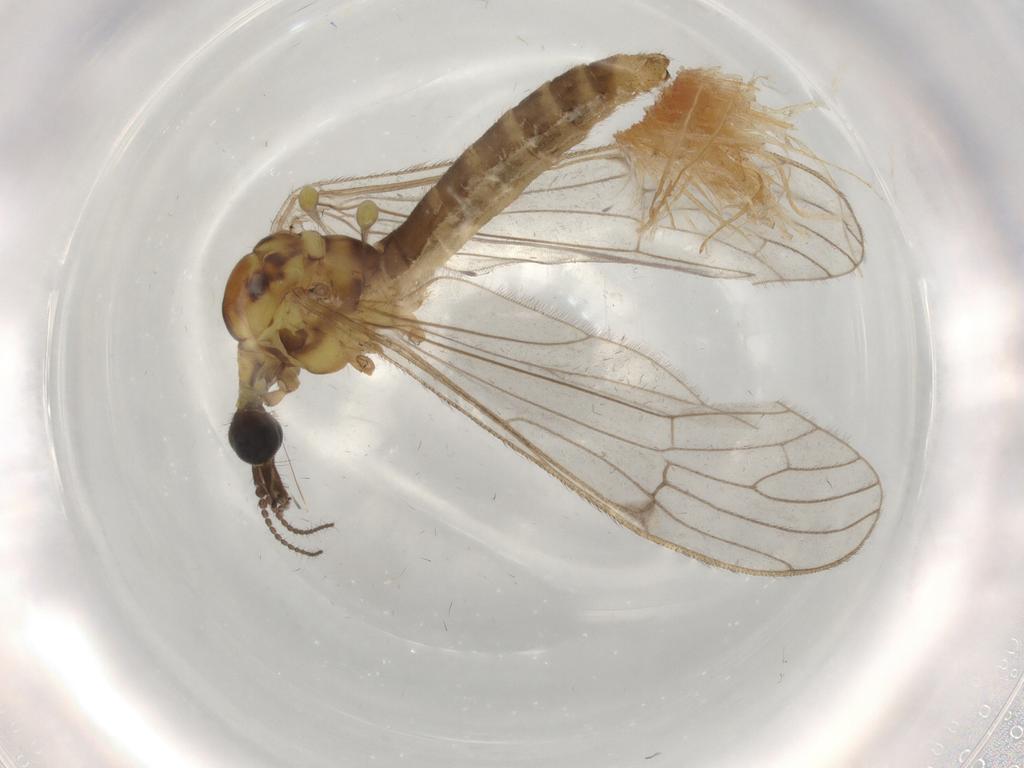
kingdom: Animalia
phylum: Arthropoda
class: Insecta
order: Diptera
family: Limoniidae
